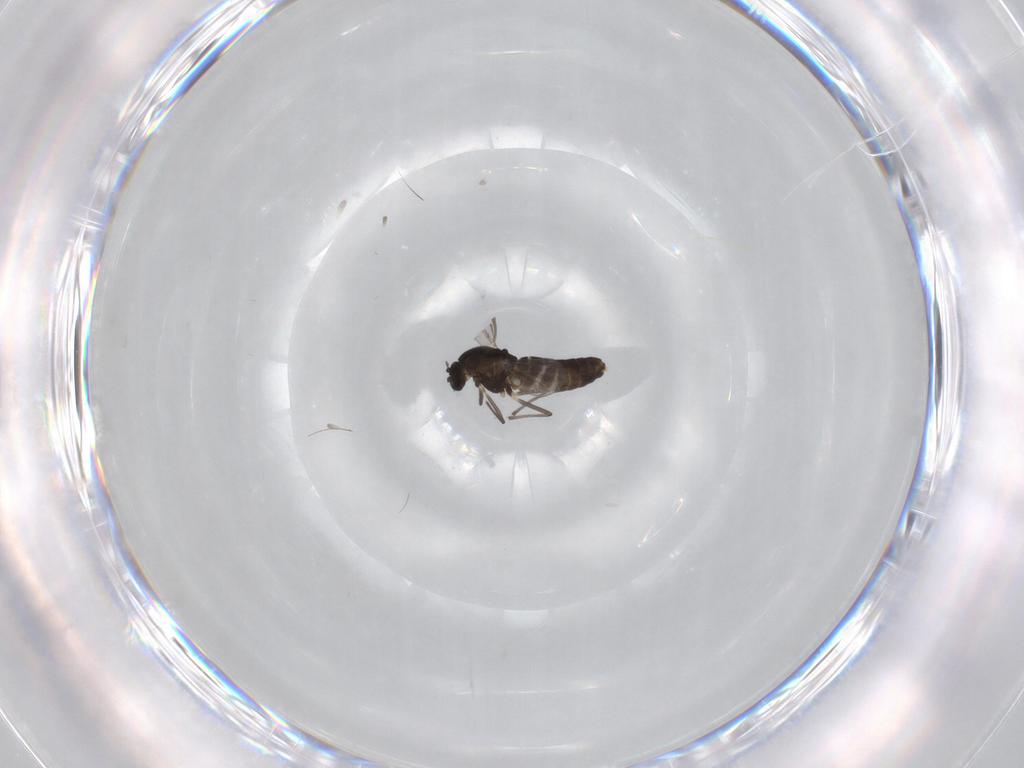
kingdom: Animalia
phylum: Arthropoda
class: Insecta
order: Diptera
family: Chironomidae
